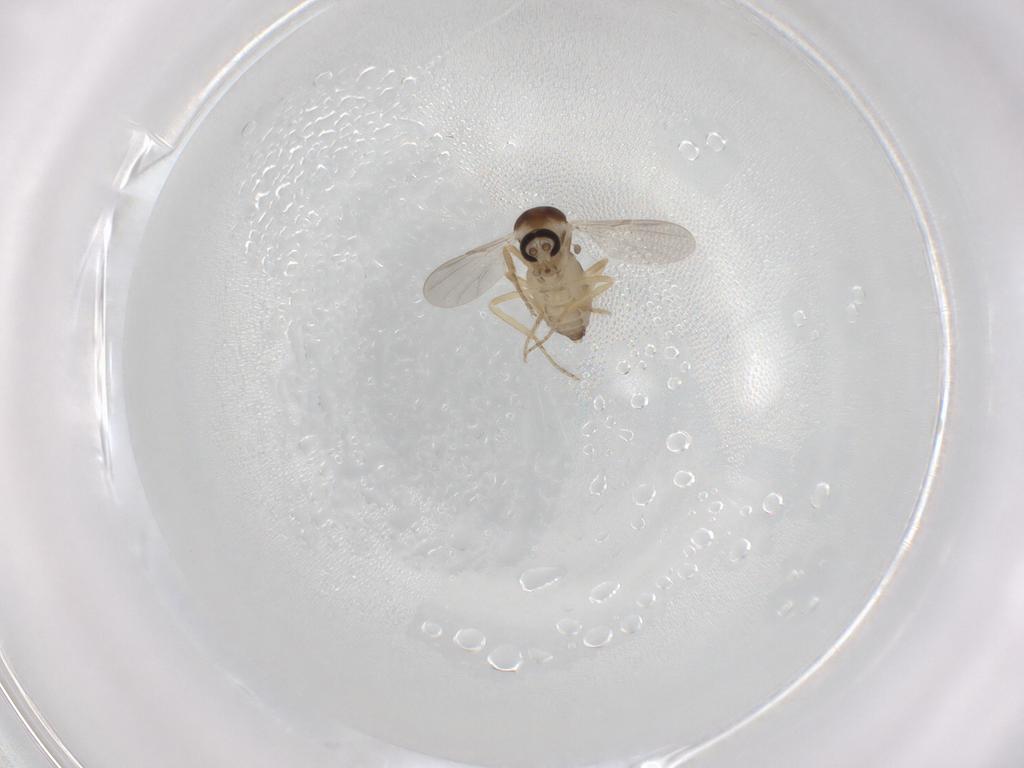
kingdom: Animalia
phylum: Arthropoda
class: Insecta
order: Diptera
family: Ceratopogonidae
